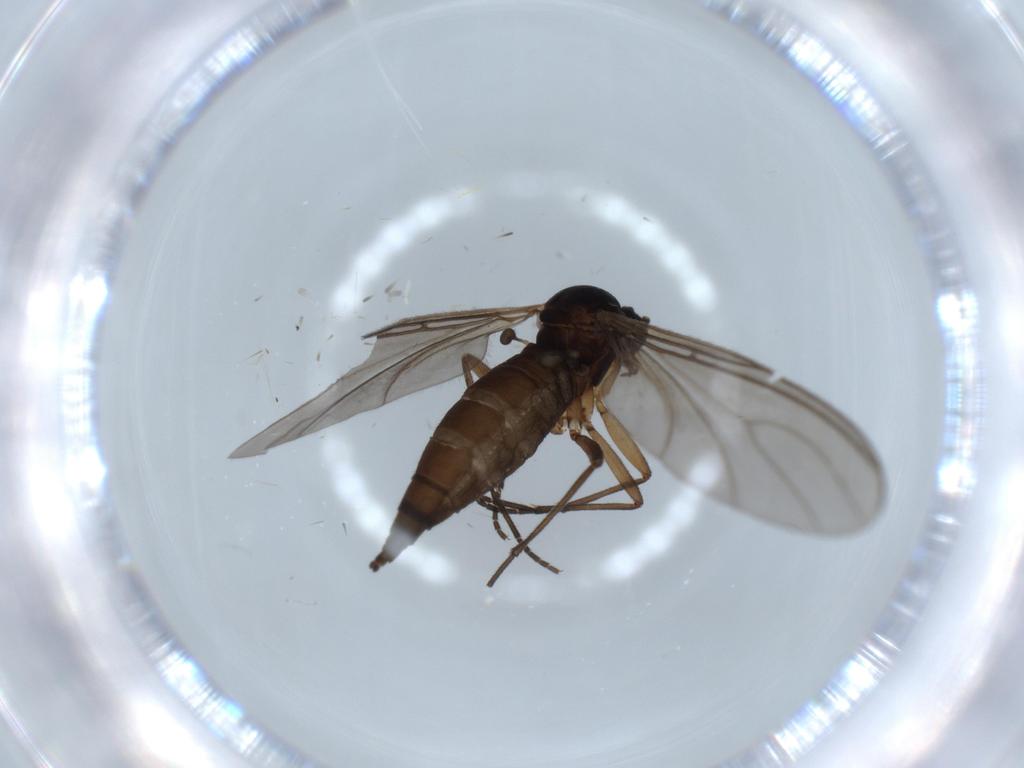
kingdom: Animalia
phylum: Arthropoda
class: Insecta
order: Diptera
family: Sciaridae
